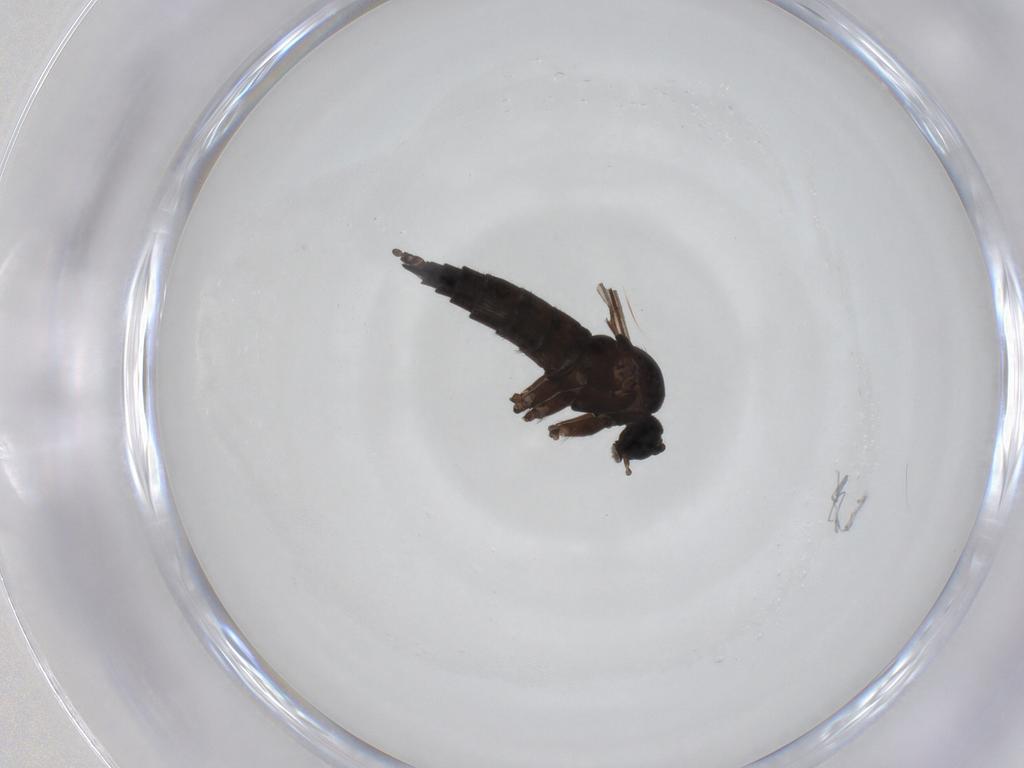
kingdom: Animalia
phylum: Arthropoda
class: Insecta
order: Diptera
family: Sciaridae
